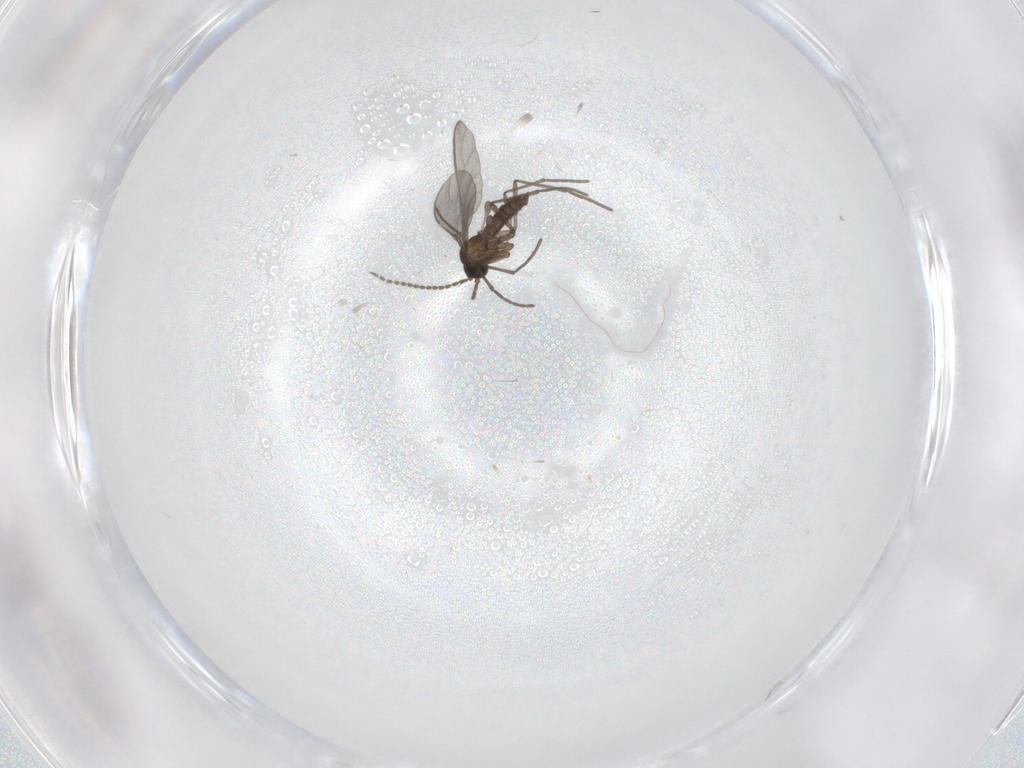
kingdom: Animalia
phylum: Arthropoda
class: Insecta
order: Diptera
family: Sciaridae
